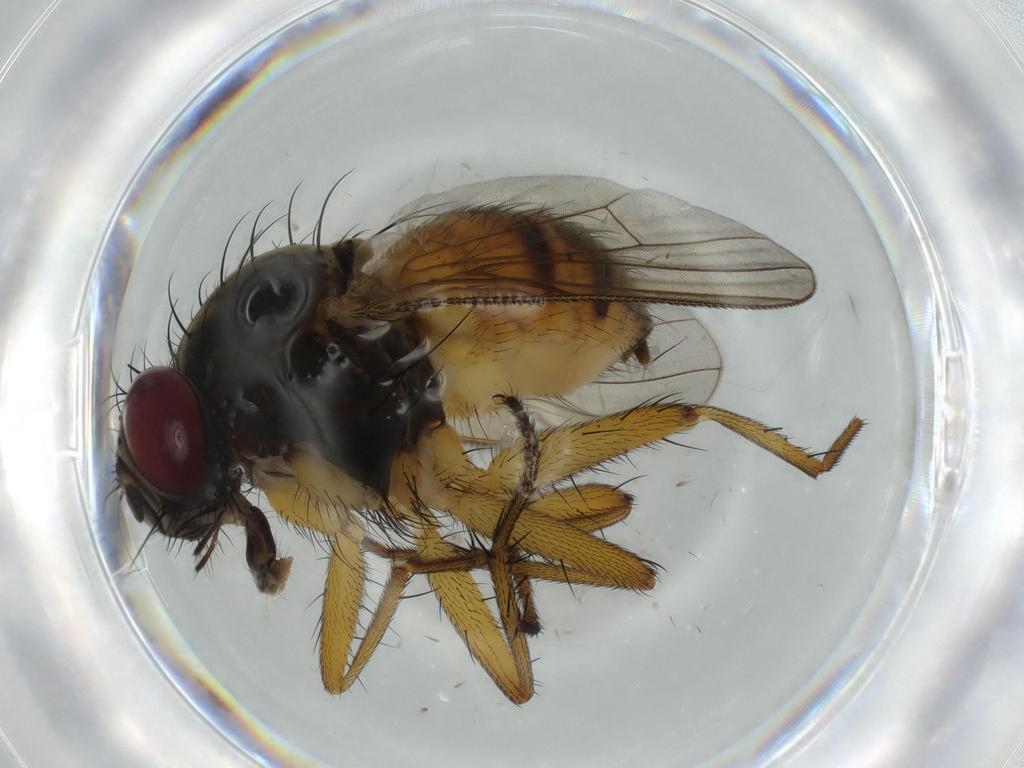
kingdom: Animalia
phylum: Arthropoda
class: Insecta
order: Diptera
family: Muscidae
